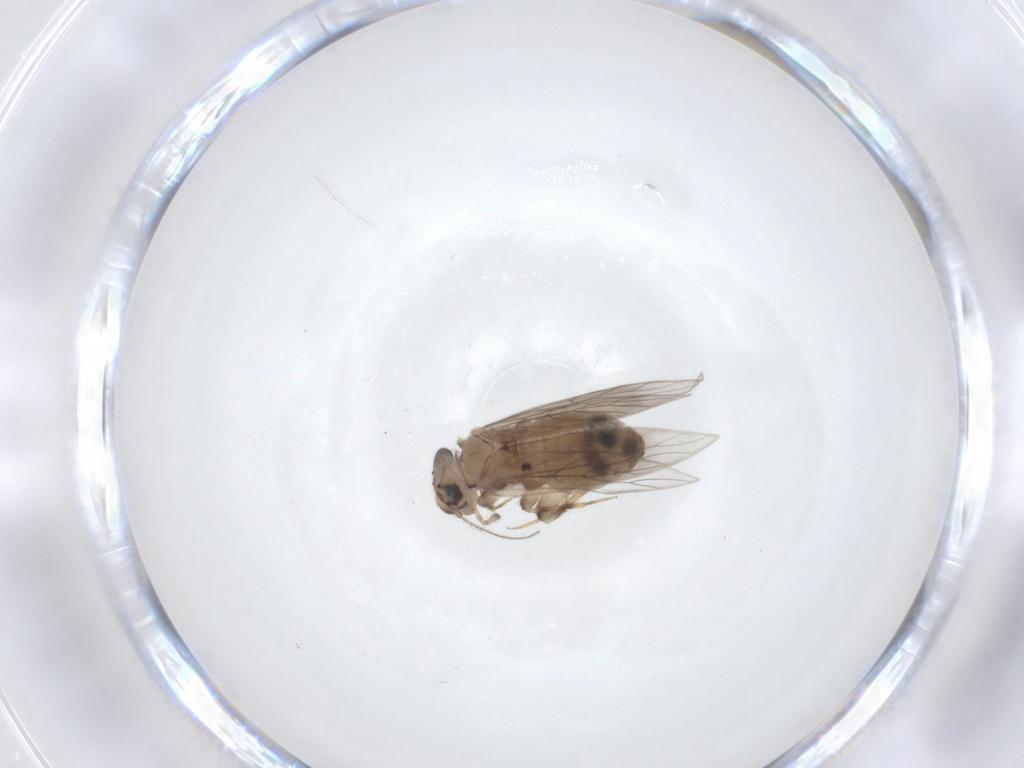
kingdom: Animalia
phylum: Arthropoda
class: Insecta
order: Psocodea
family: Lepidopsocidae
